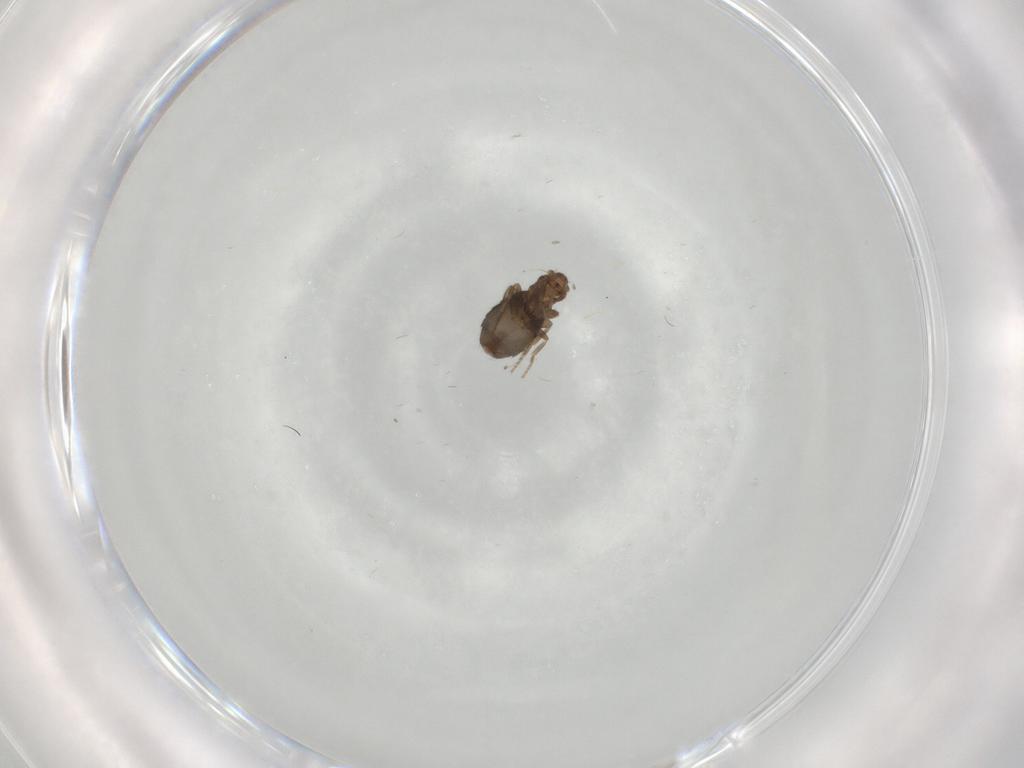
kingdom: Animalia
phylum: Arthropoda
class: Insecta
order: Diptera
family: Phoridae
